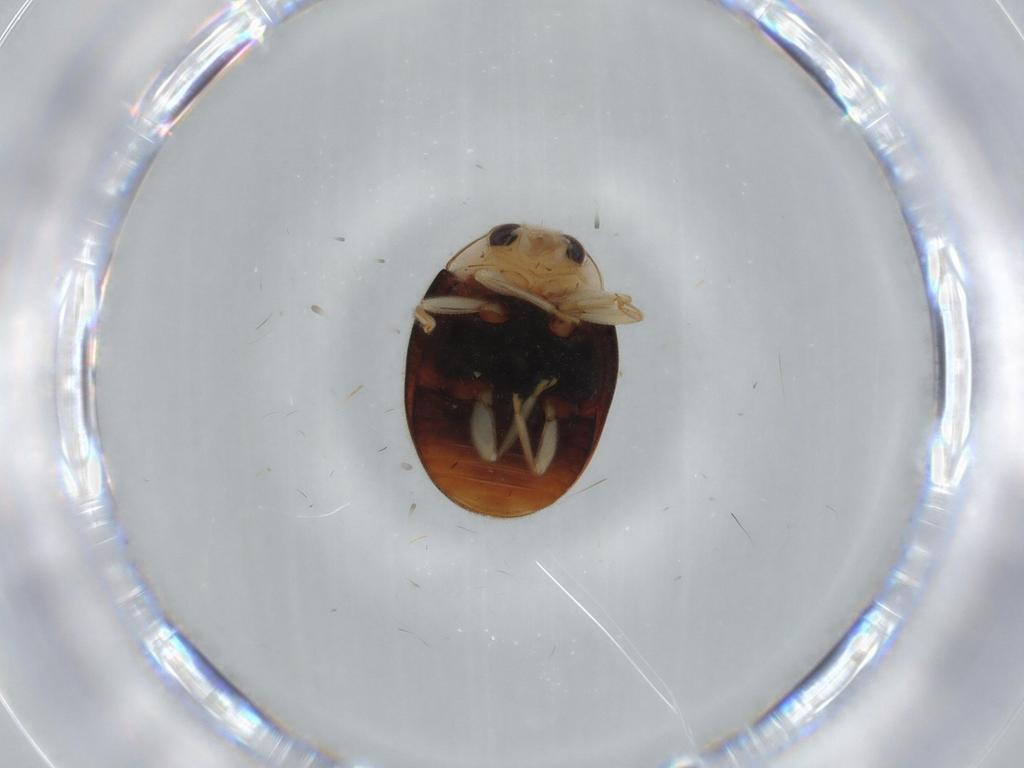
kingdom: Animalia
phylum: Arthropoda
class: Insecta
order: Coleoptera
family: Coccinellidae
